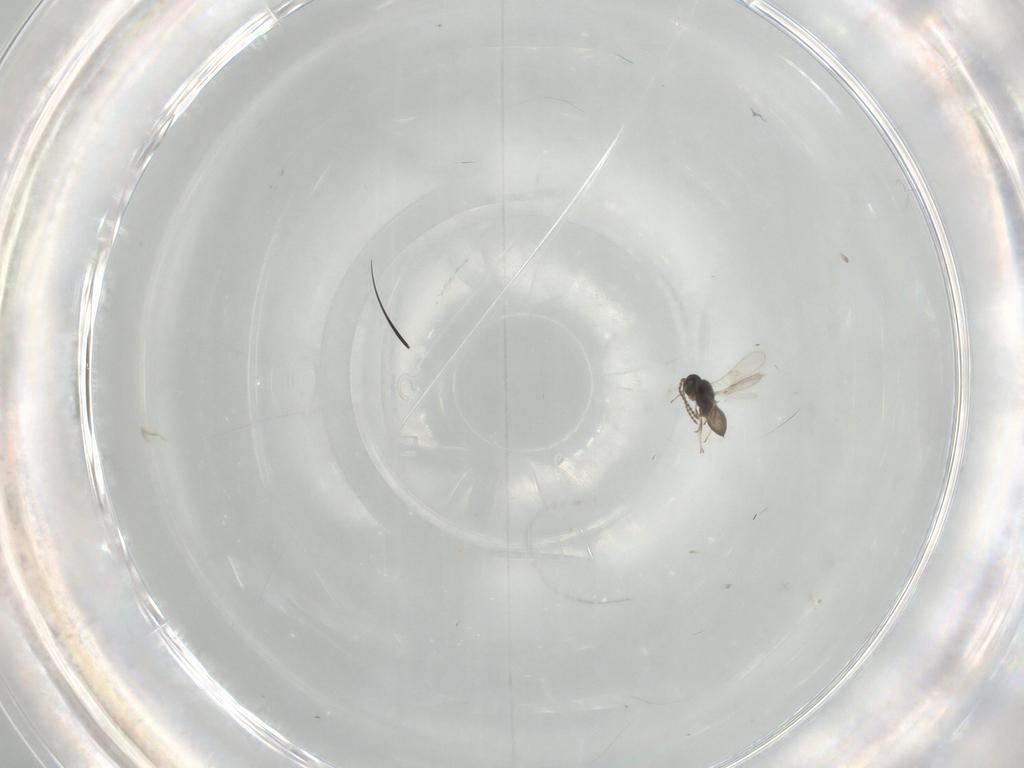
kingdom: Animalia
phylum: Arthropoda
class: Insecta
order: Hymenoptera
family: Scelionidae
